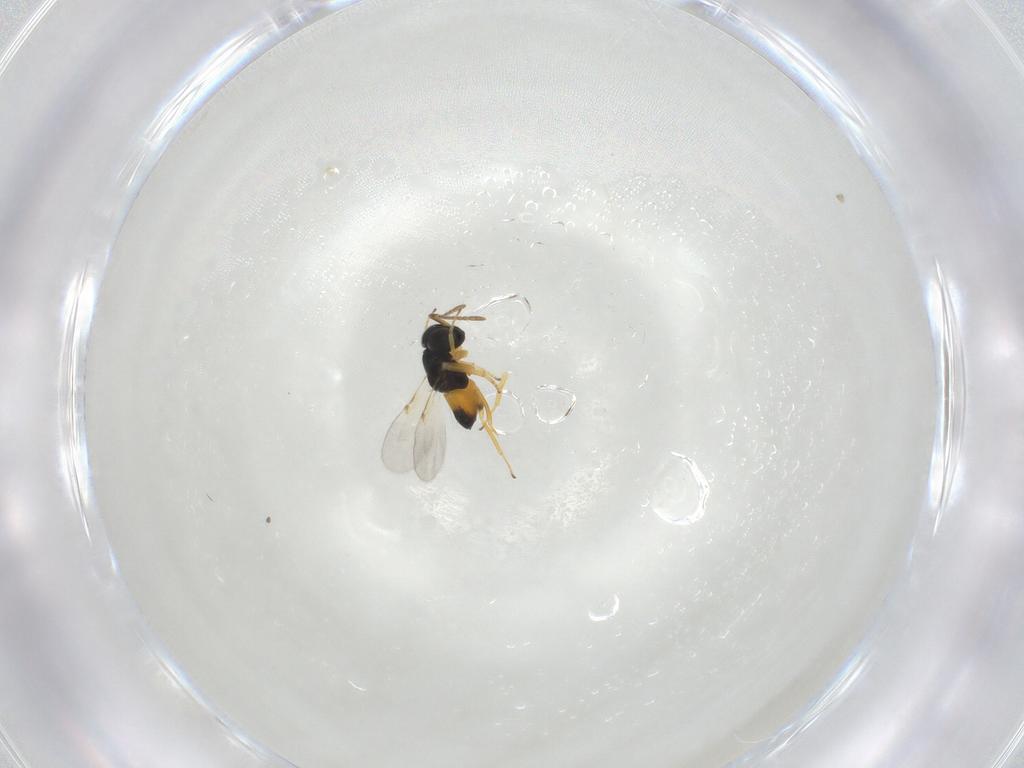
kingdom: Animalia
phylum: Arthropoda
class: Insecta
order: Hymenoptera
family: Encyrtidae
